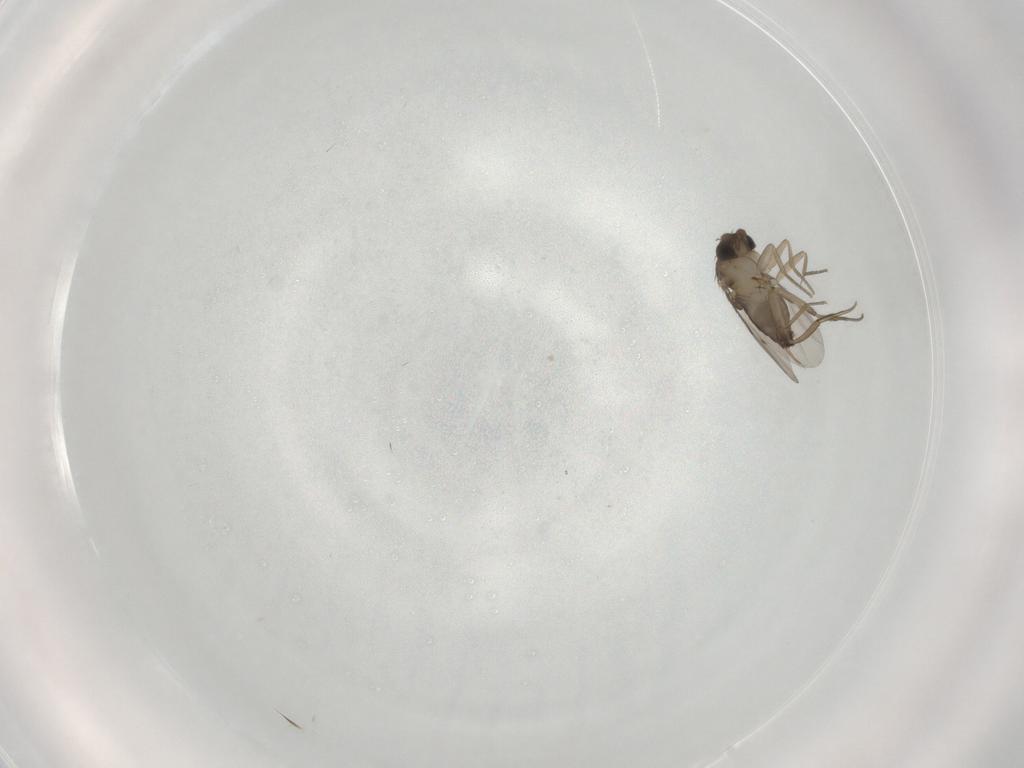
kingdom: Animalia
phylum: Arthropoda
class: Insecta
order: Diptera
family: Phoridae
